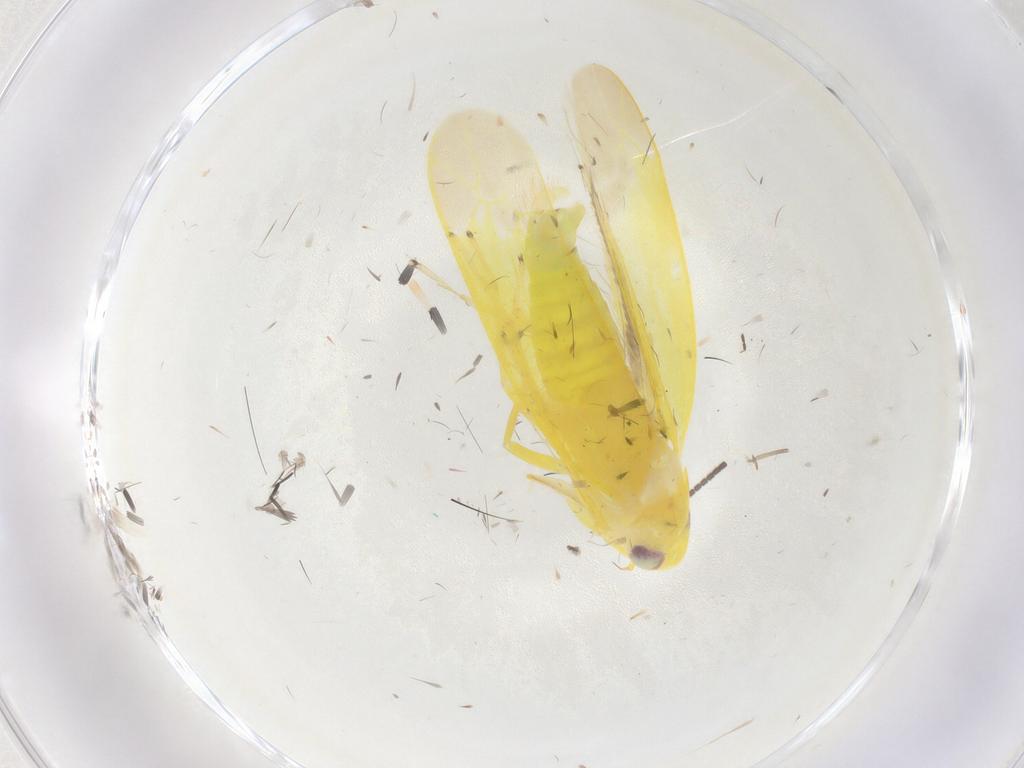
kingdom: Animalia
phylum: Arthropoda
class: Insecta
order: Hemiptera
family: Cicadellidae
